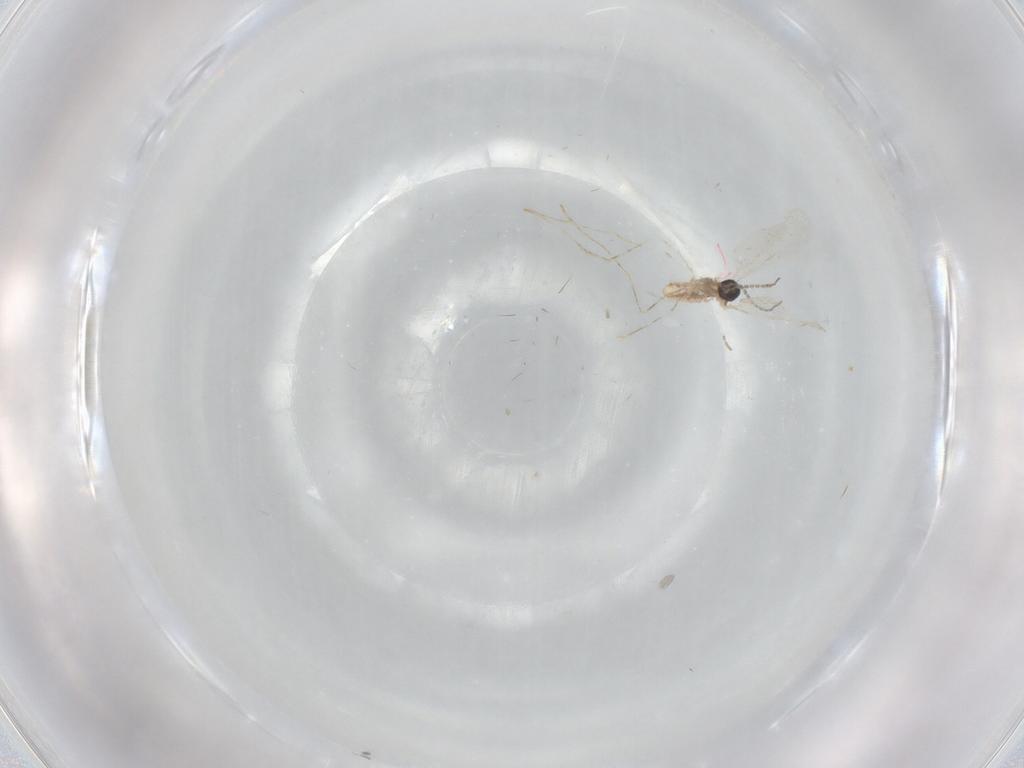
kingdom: Animalia
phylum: Arthropoda
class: Insecta
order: Diptera
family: Cecidomyiidae
